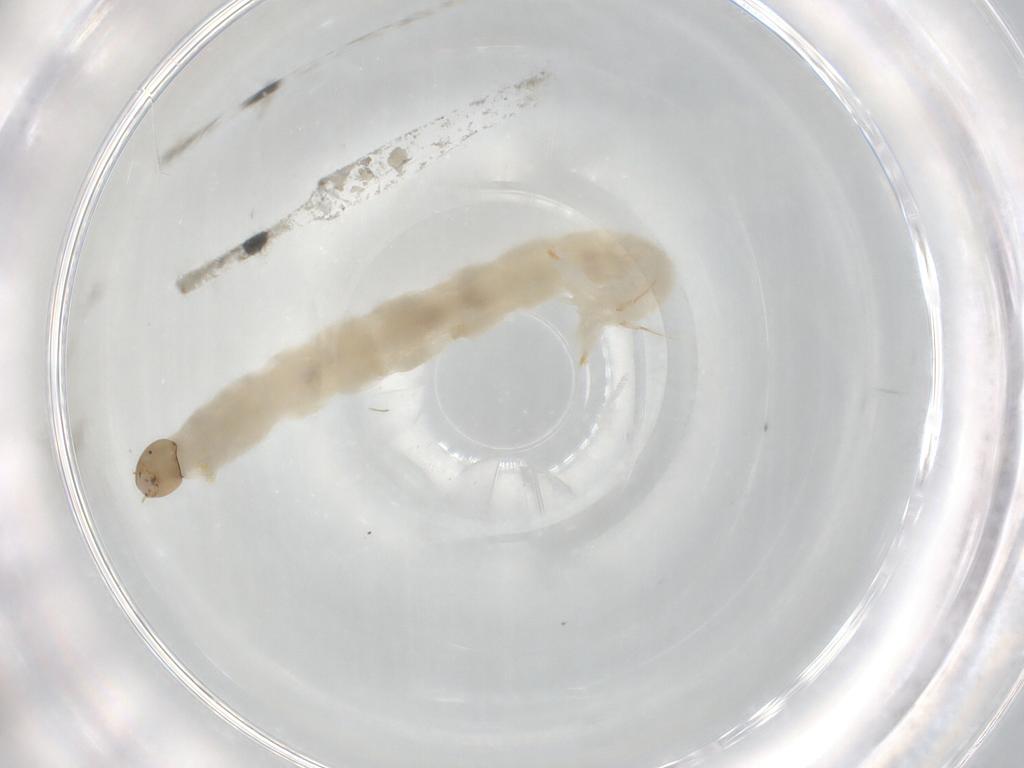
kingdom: Animalia
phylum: Arthropoda
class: Insecta
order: Diptera
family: Chironomidae
